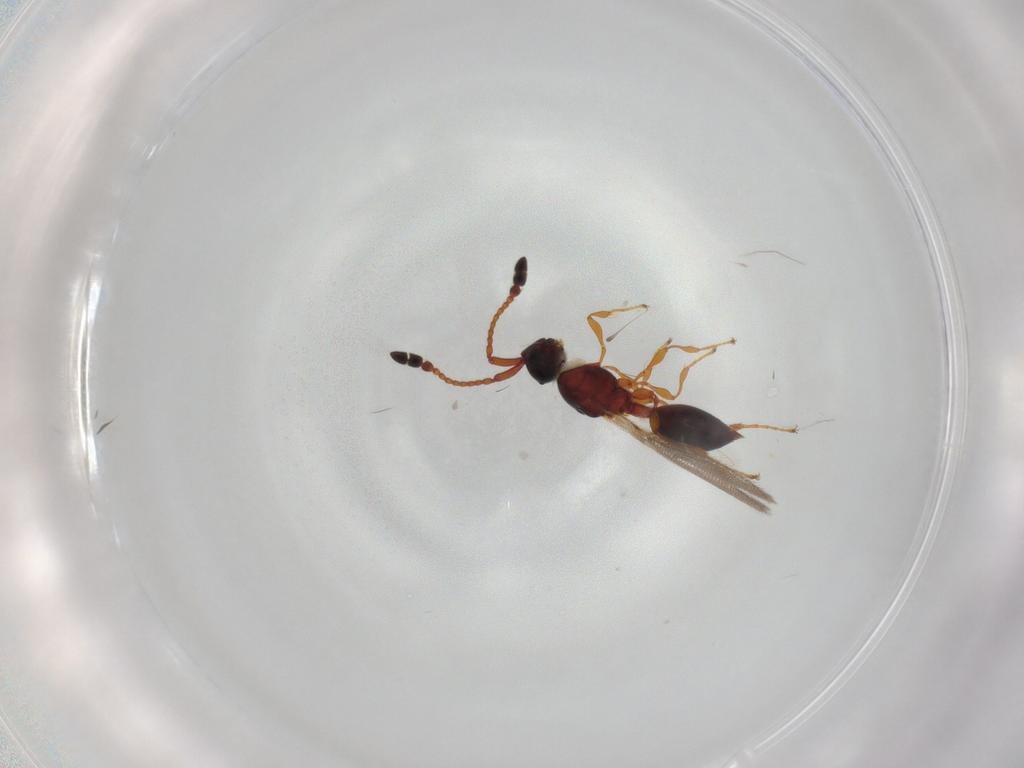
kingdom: Animalia
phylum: Arthropoda
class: Insecta
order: Hymenoptera
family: Diapriidae
